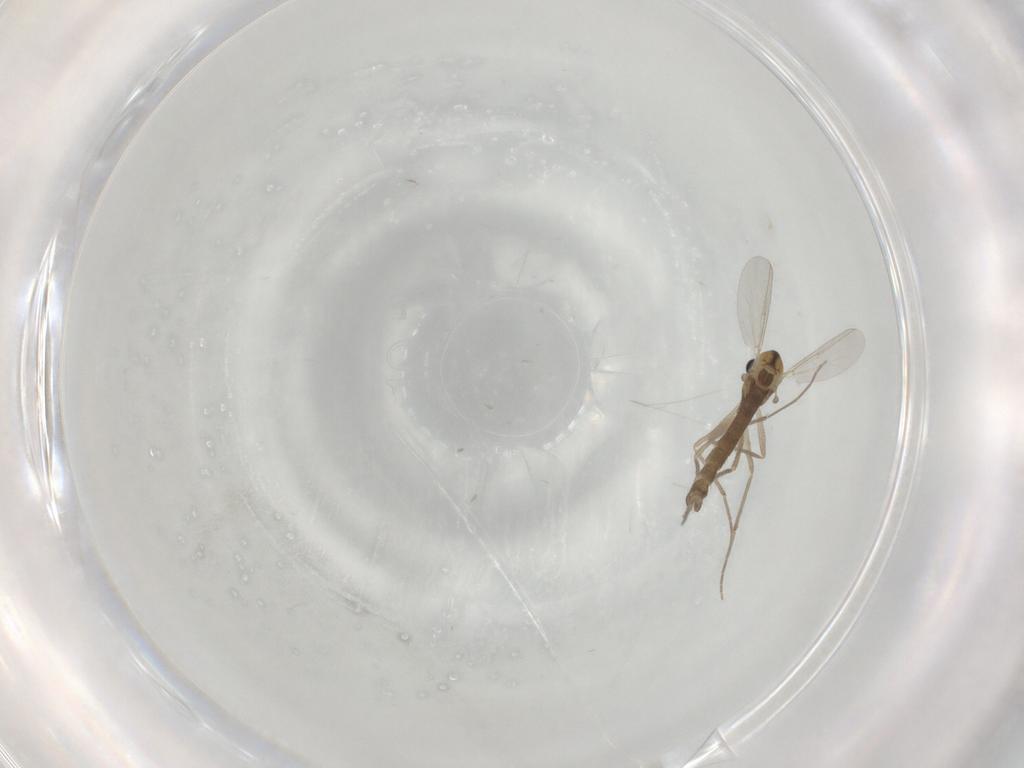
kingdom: Animalia
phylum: Arthropoda
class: Insecta
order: Diptera
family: Chironomidae
